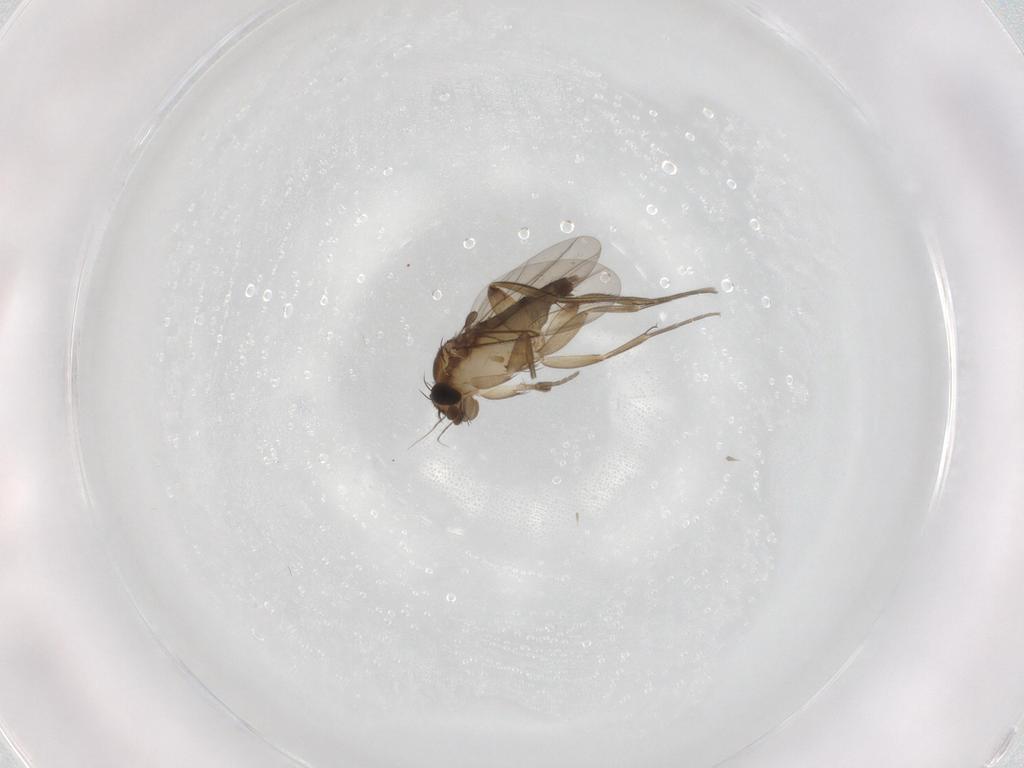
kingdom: Animalia
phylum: Arthropoda
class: Insecta
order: Diptera
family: Phoridae
